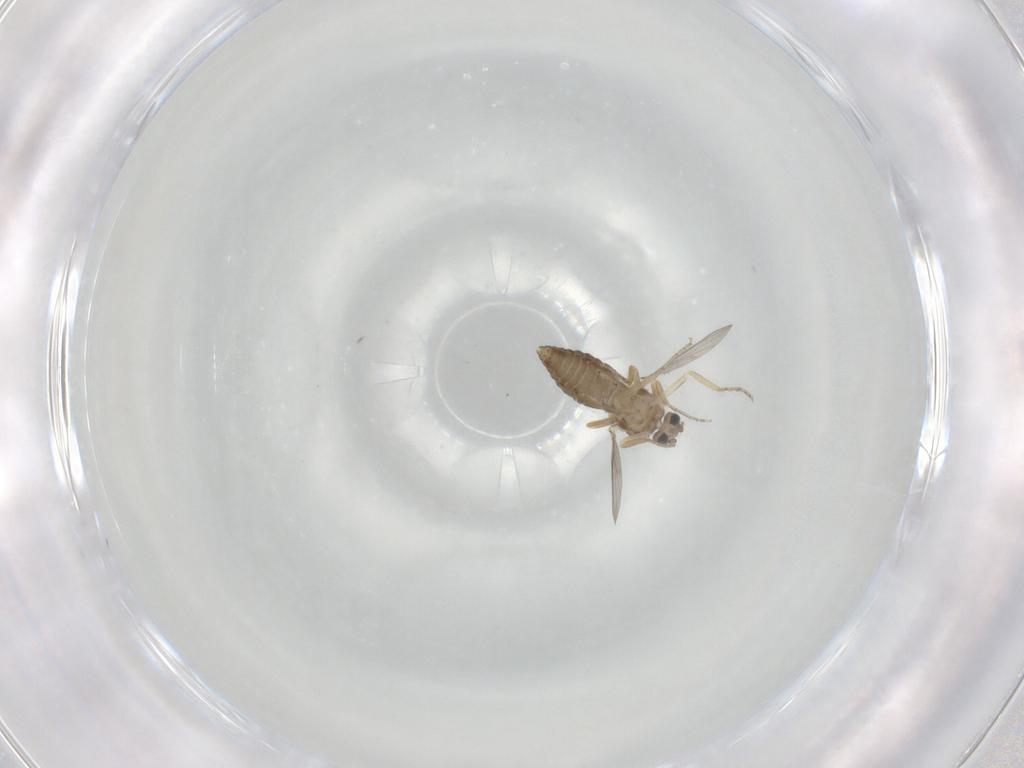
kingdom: Animalia
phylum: Arthropoda
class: Insecta
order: Diptera
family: Ceratopogonidae
